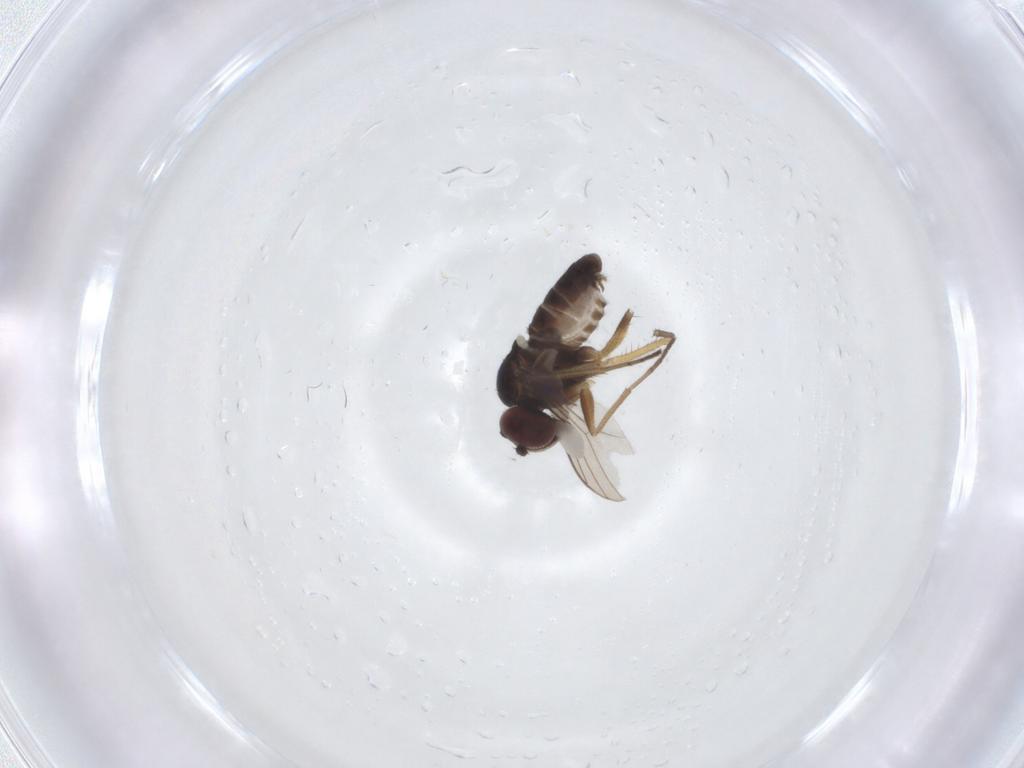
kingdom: Animalia
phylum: Arthropoda
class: Insecta
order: Diptera
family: Dolichopodidae
